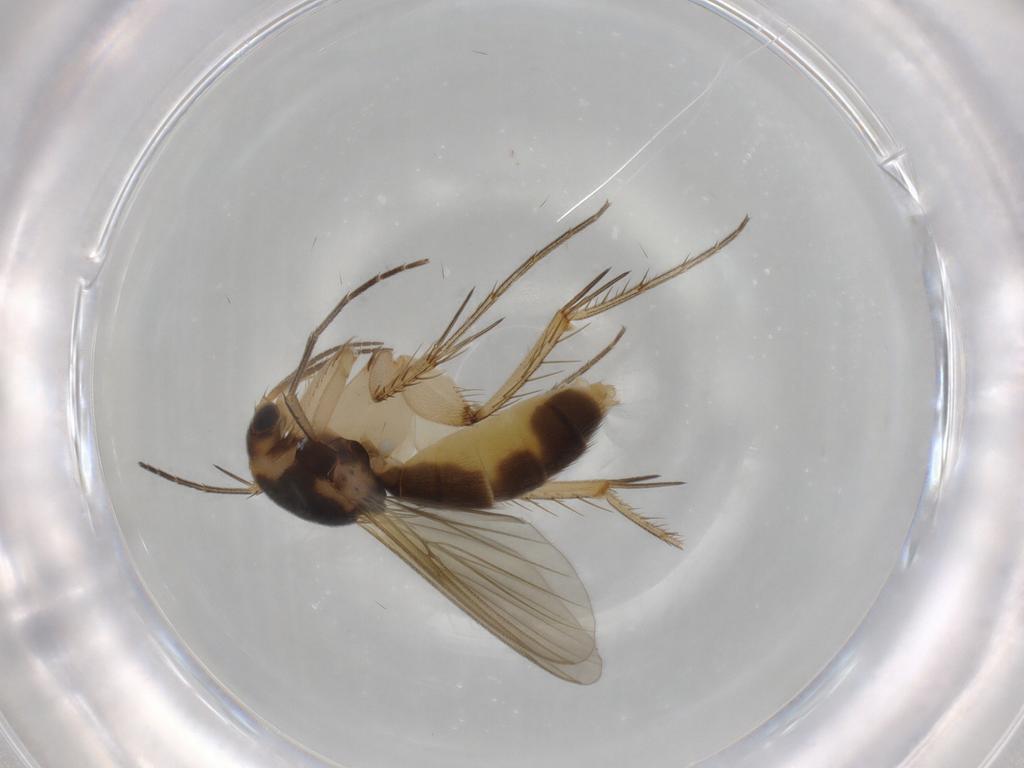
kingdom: Animalia
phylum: Arthropoda
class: Insecta
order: Diptera
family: Mycetophilidae
